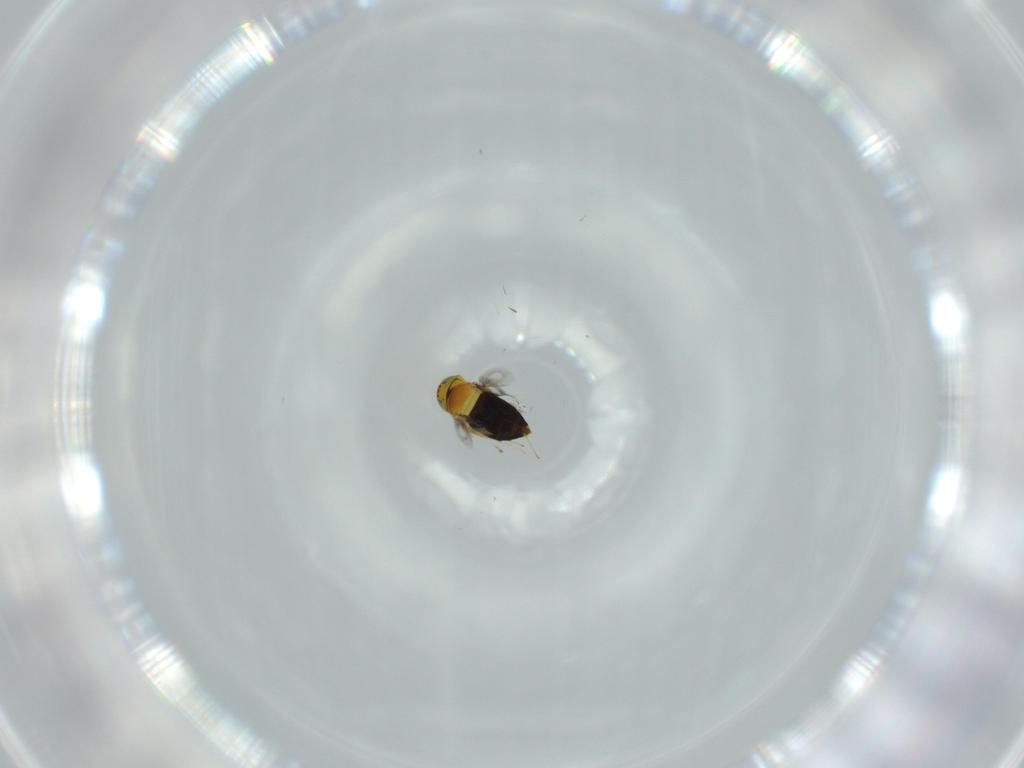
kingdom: Animalia
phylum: Arthropoda
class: Insecta
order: Hymenoptera
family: Signiphoridae
